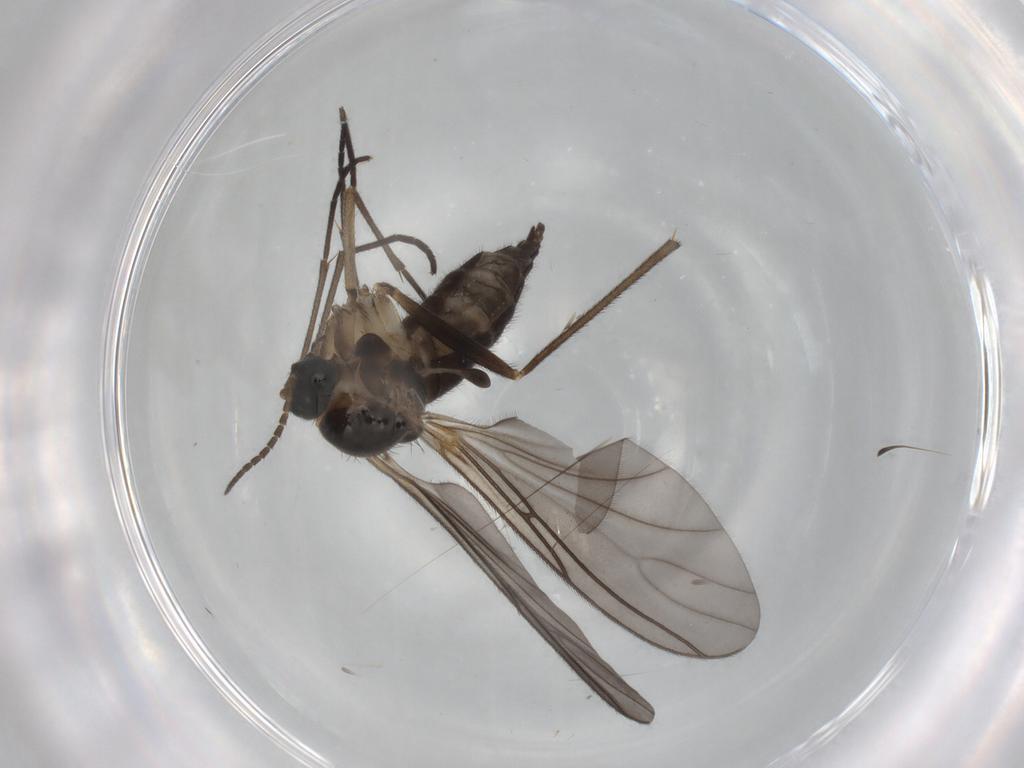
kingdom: Animalia
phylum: Arthropoda
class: Insecta
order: Diptera
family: Sciaridae
